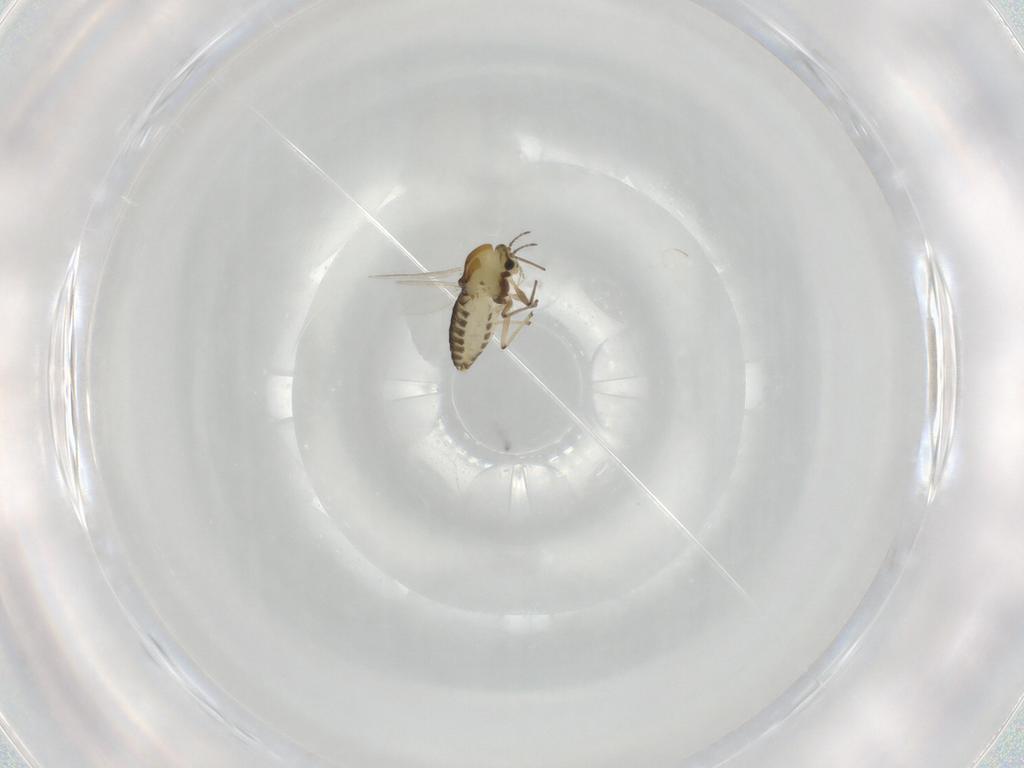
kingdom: Animalia
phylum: Arthropoda
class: Insecta
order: Diptera
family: Chironomidae
